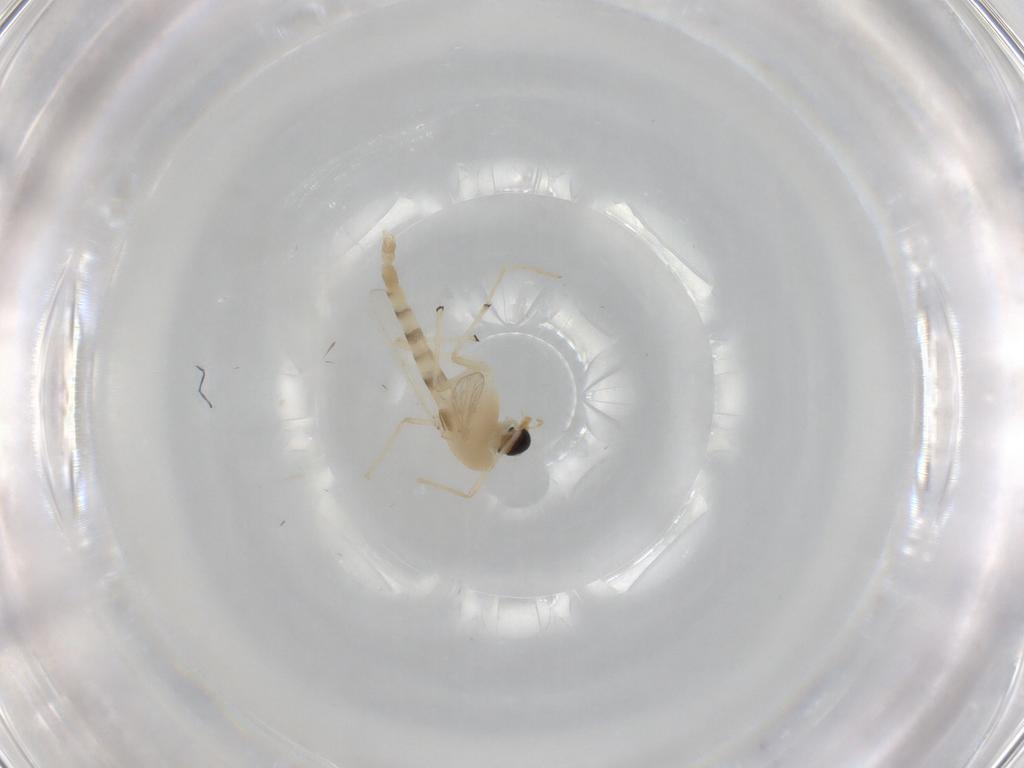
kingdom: Animalia
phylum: Arthropoda
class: Insecta
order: Diptera
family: Chironomidae
